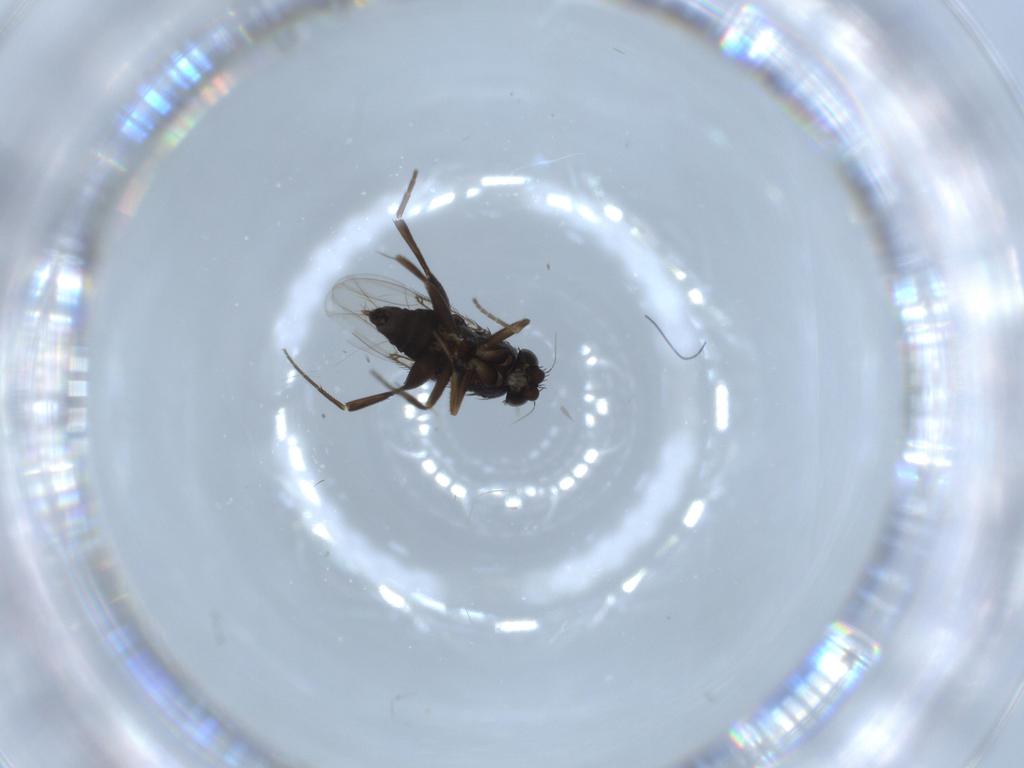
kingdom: Animalia
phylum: Arthropoda
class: Insecta
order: Diptera
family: Phoridae
